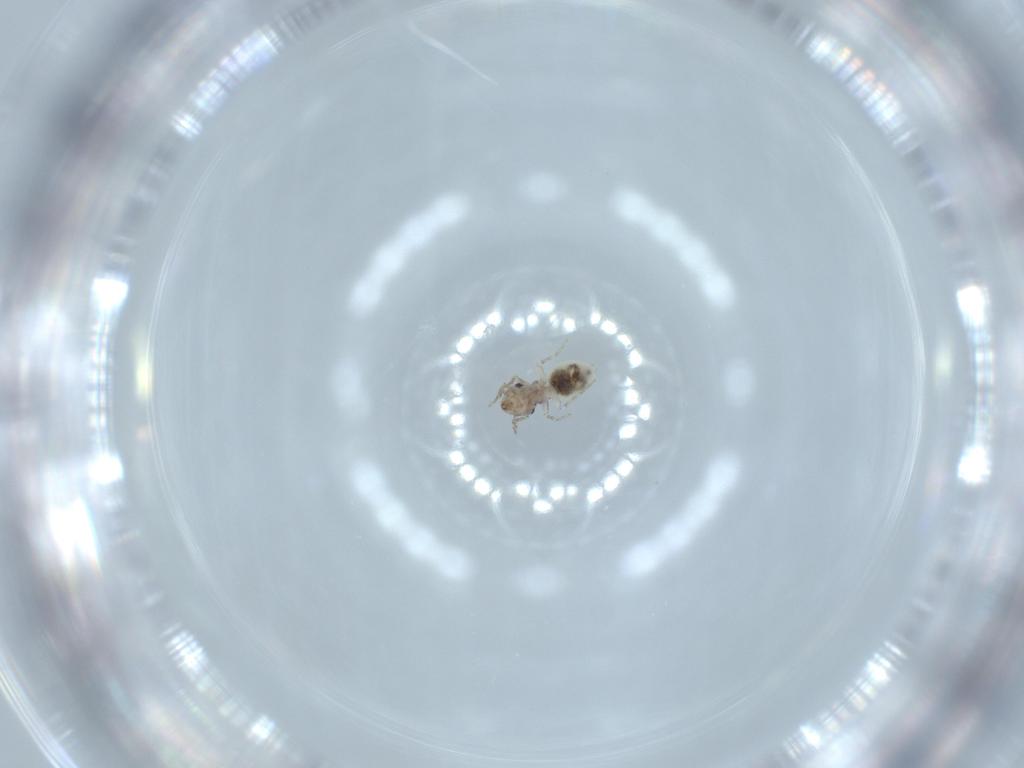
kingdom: Animalia
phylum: Arthropoda
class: Insecta
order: Psocodea
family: Lepidopsocidae
